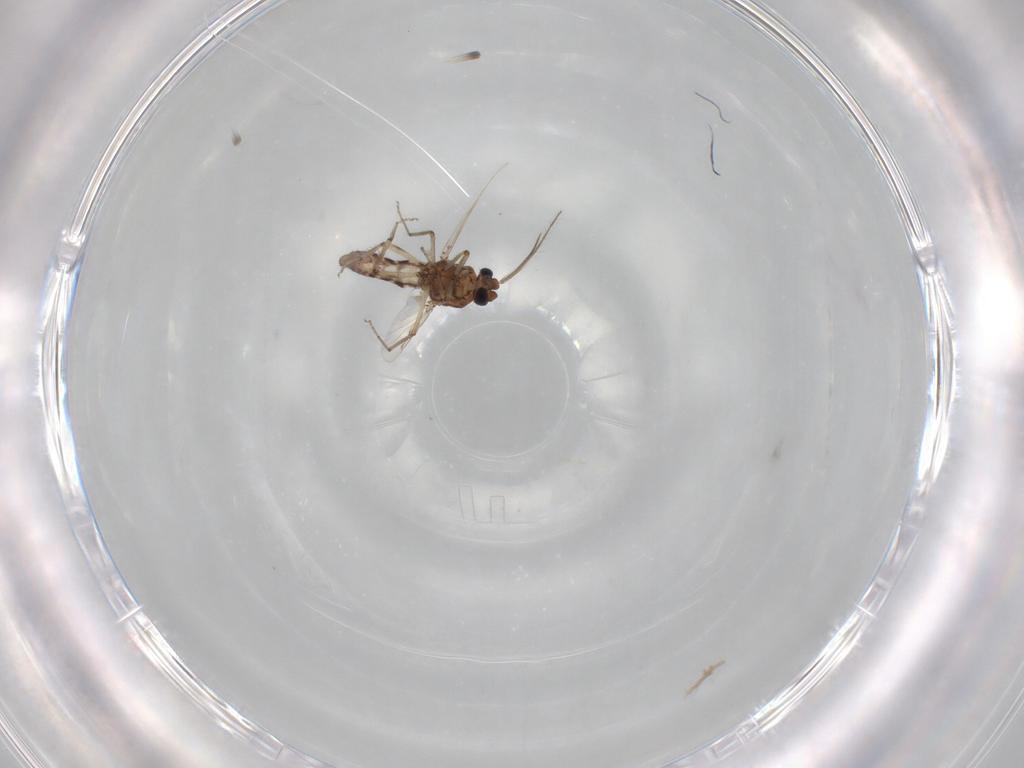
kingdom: Animalia
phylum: Arthropoda
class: Insecta
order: Diptera
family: Ceratopogonidae
